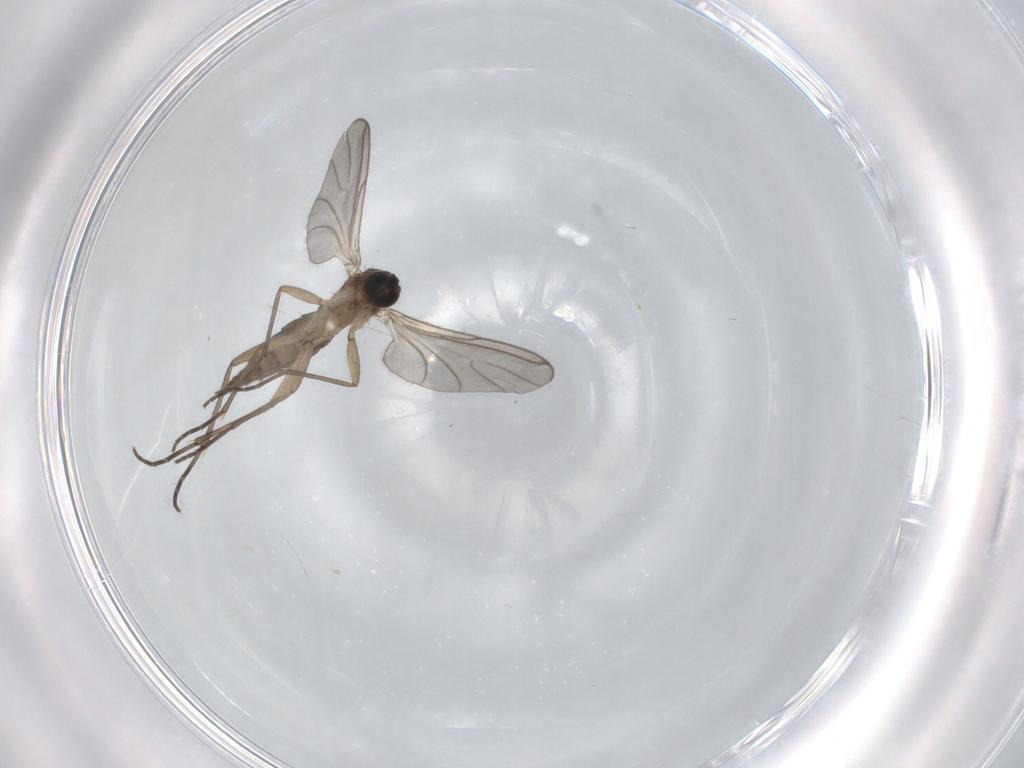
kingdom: Animalia
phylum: Arthropoda
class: Insecta
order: Diptera
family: Sciaridae
